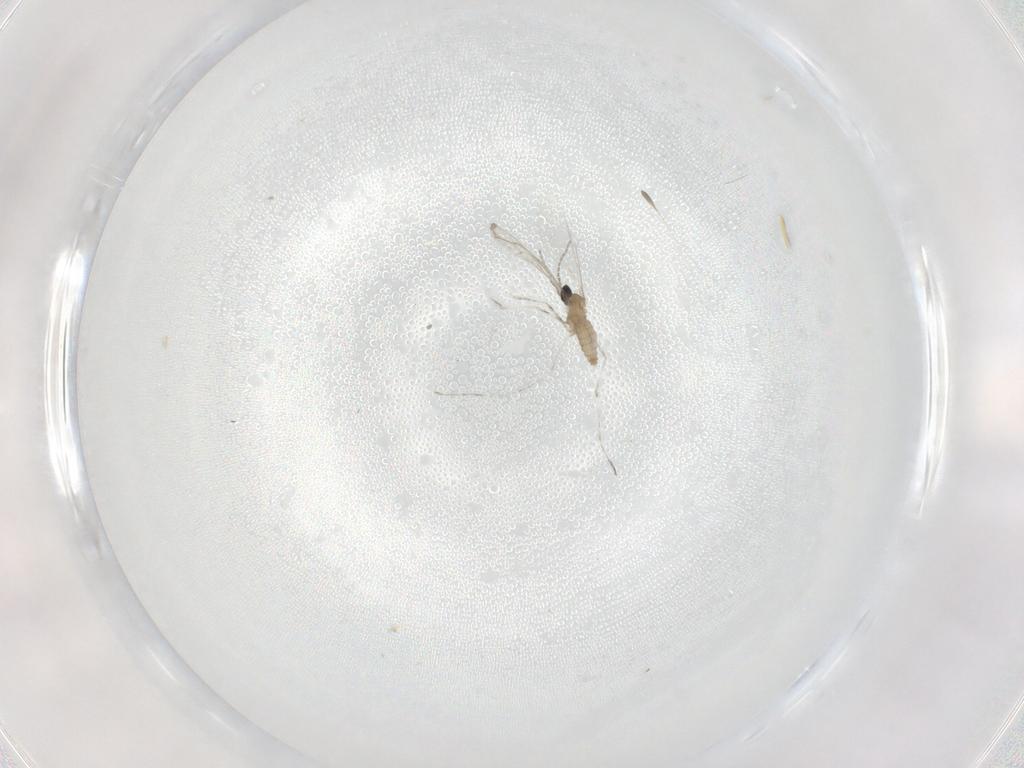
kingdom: Animalia
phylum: Arthropoda
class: Insecta
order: Diptera
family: Cecidomyiidae
